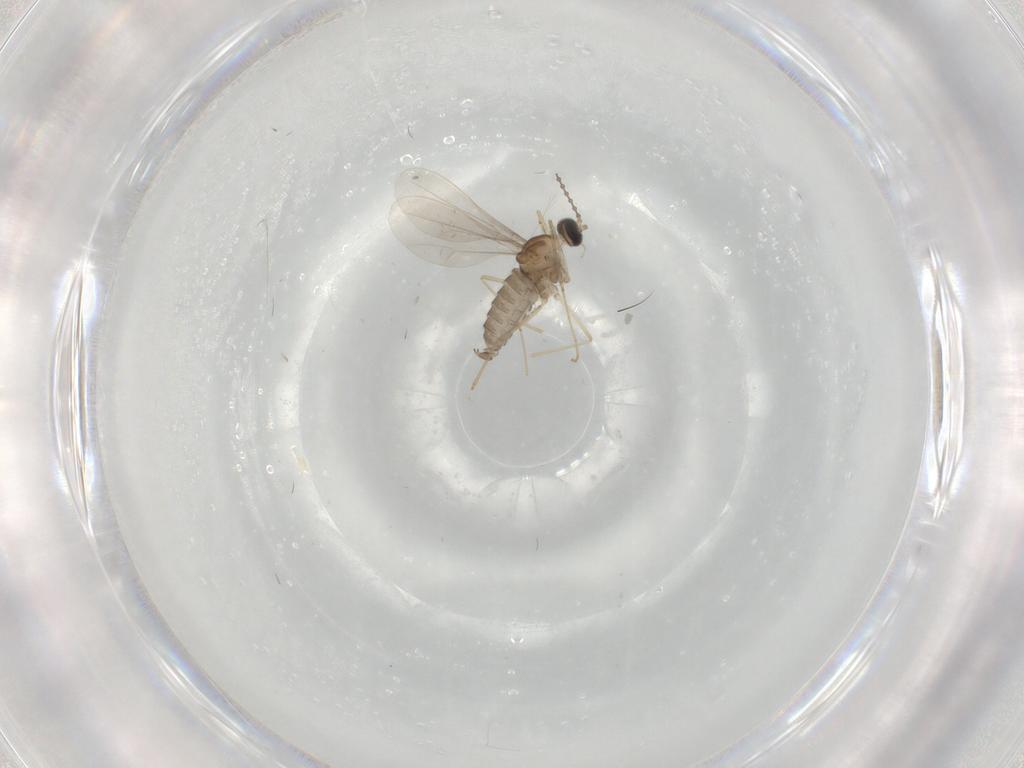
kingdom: Animalia
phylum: Arthropoda
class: Insecta
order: Diptera
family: Cecidomyiidae
